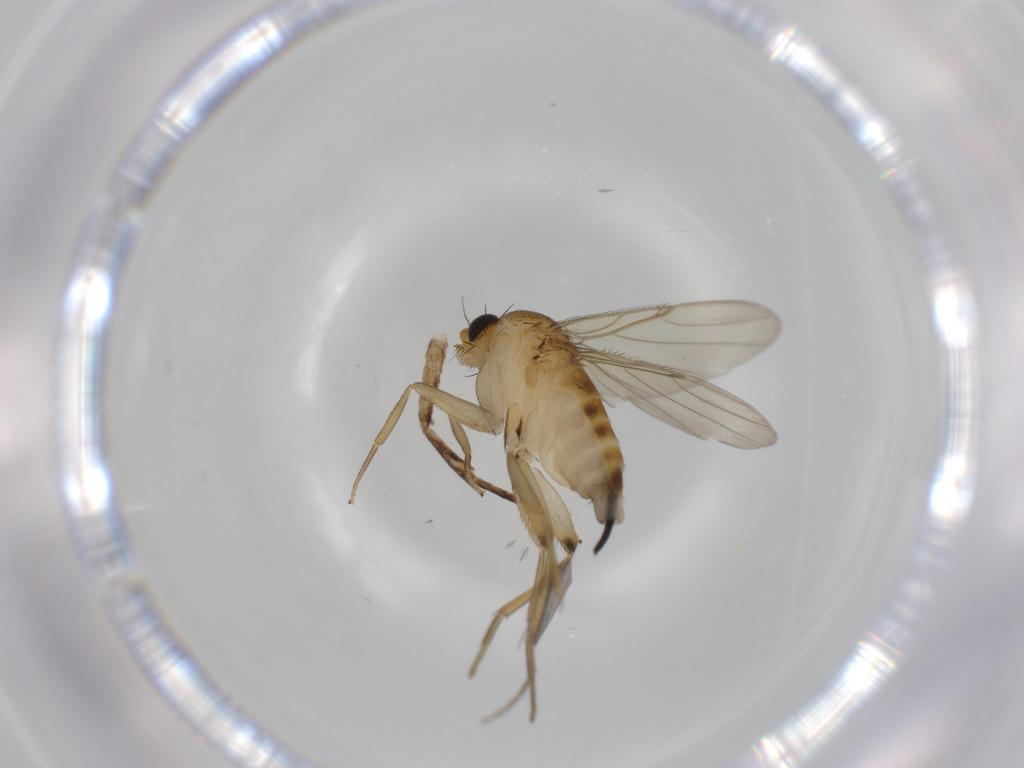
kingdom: Animalia
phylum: Arthropoda
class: Insecta
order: Diptera
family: Phoridae
